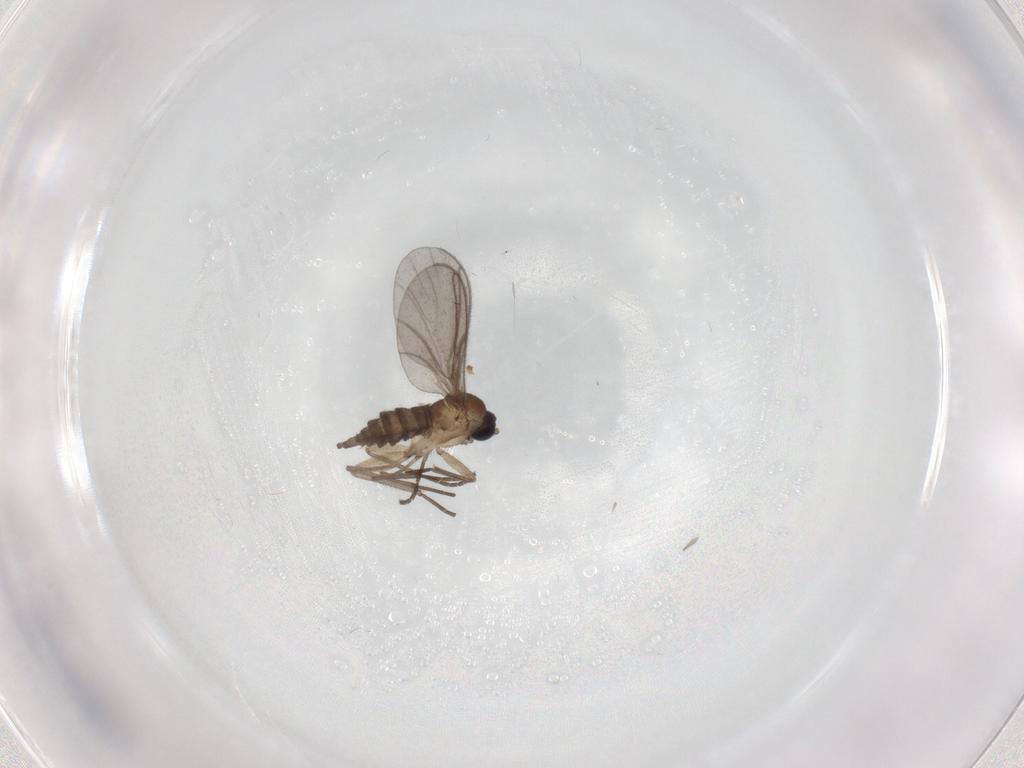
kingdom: Animalia
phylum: Arthropoda
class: Insecta
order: Diptera
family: Sciaridae
